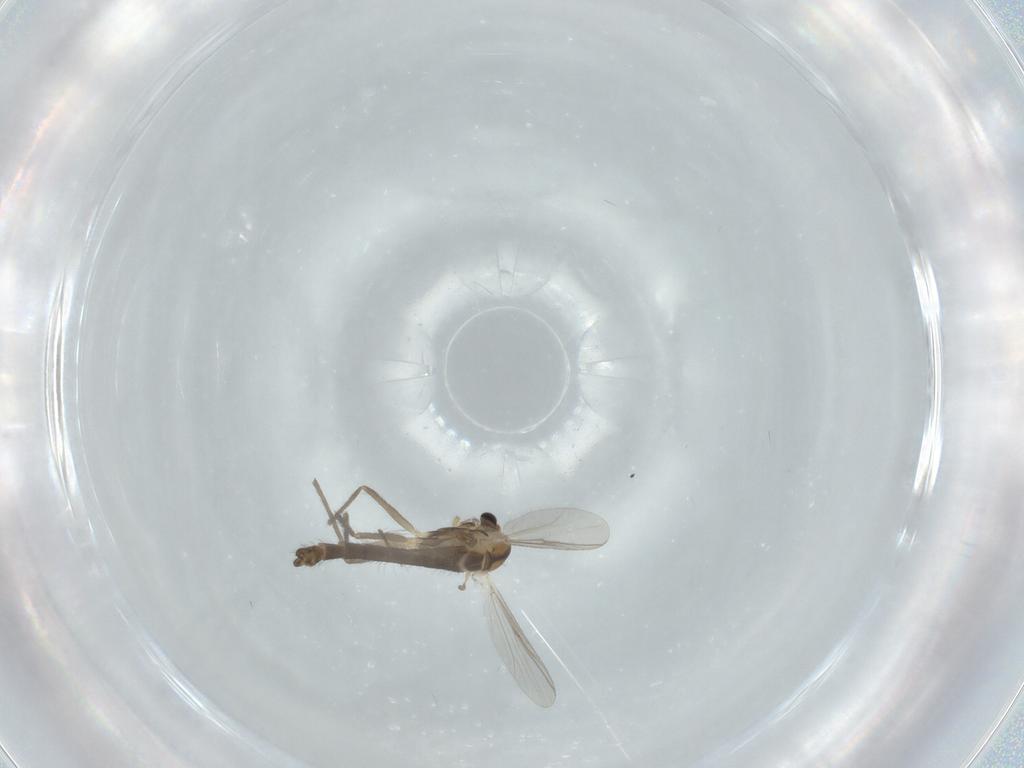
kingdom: Animalia
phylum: Arthropoda
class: Insecta
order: Diptera
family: Chironomidae
